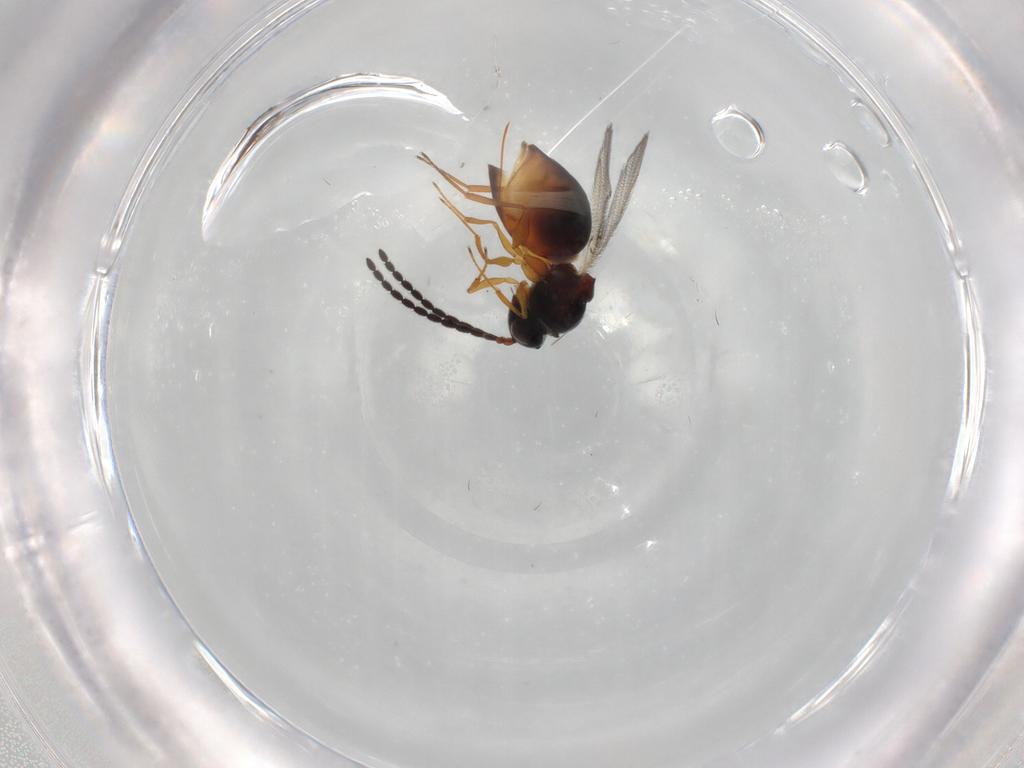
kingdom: Animalia
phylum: Arthropoda
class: Insecta
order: Hymenoptera
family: Figitidae
